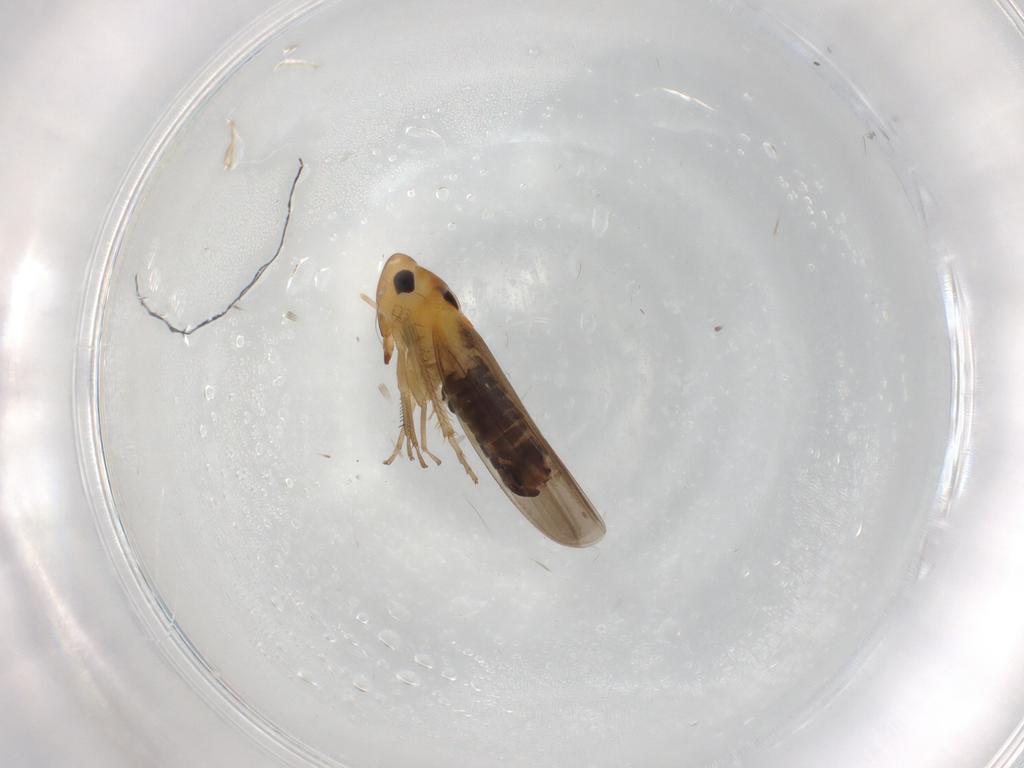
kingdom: Animalia
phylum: Arthropoda
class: Insecta
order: Hemiptera
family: Cicadellidae
